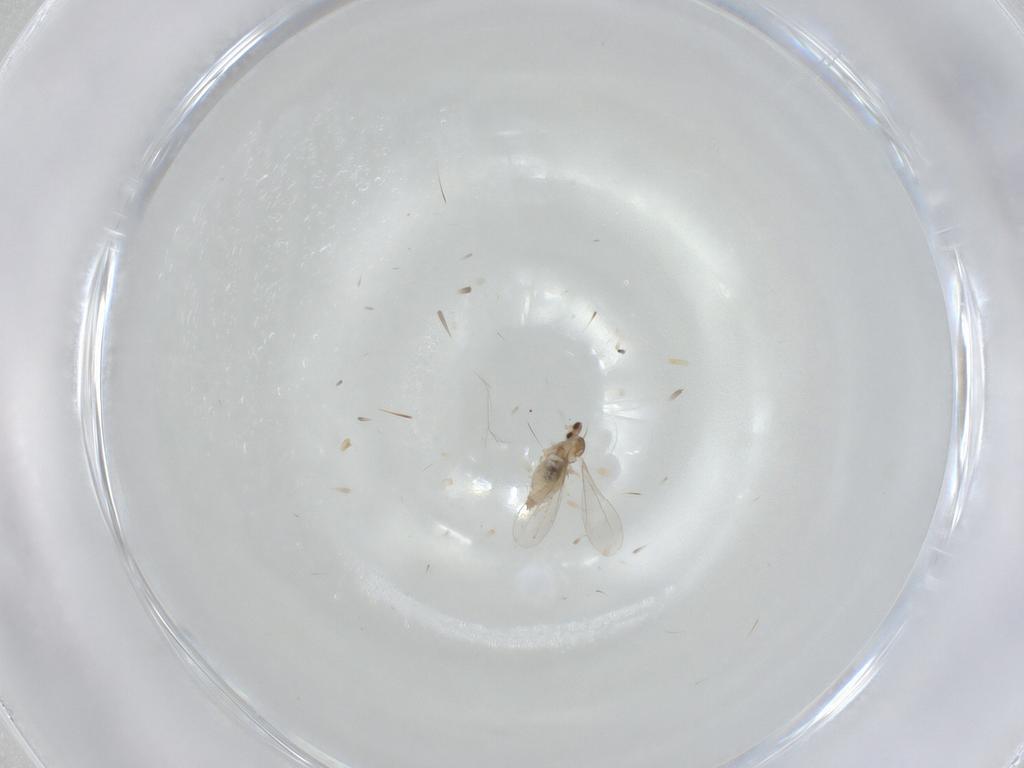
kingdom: Animalia
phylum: Arthropoda
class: Insecta
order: Diptera
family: Cecidomyiidae
